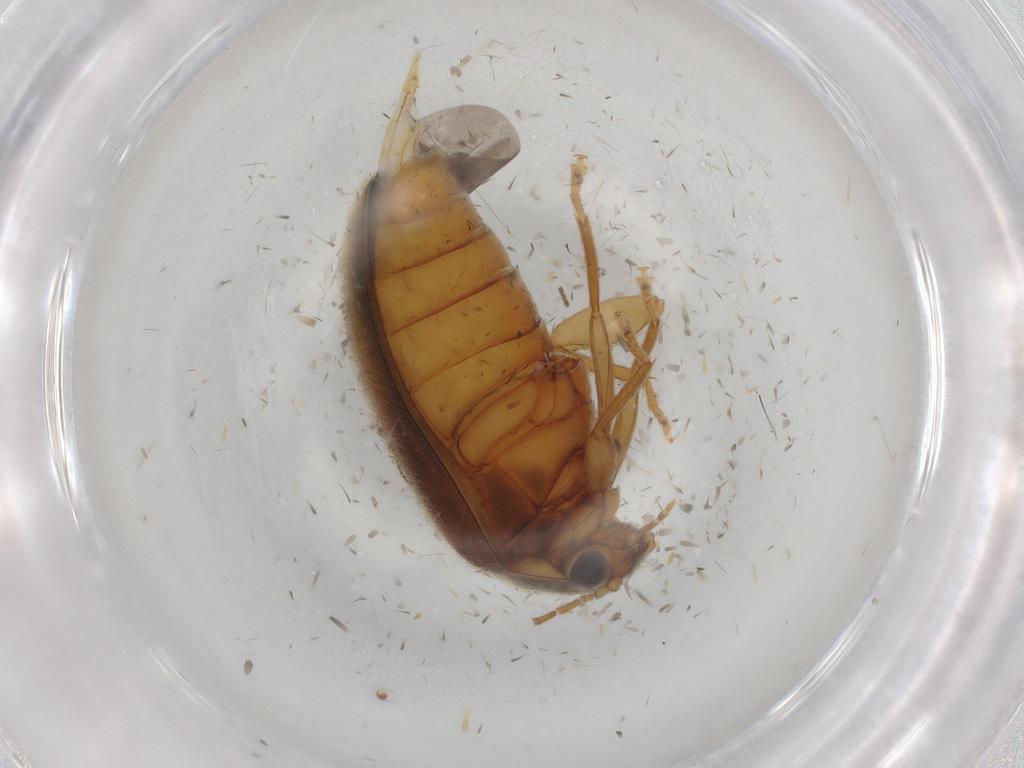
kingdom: Animalia
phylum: Arthropoda
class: Insecta
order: Coleoptera
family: Scirtidae
